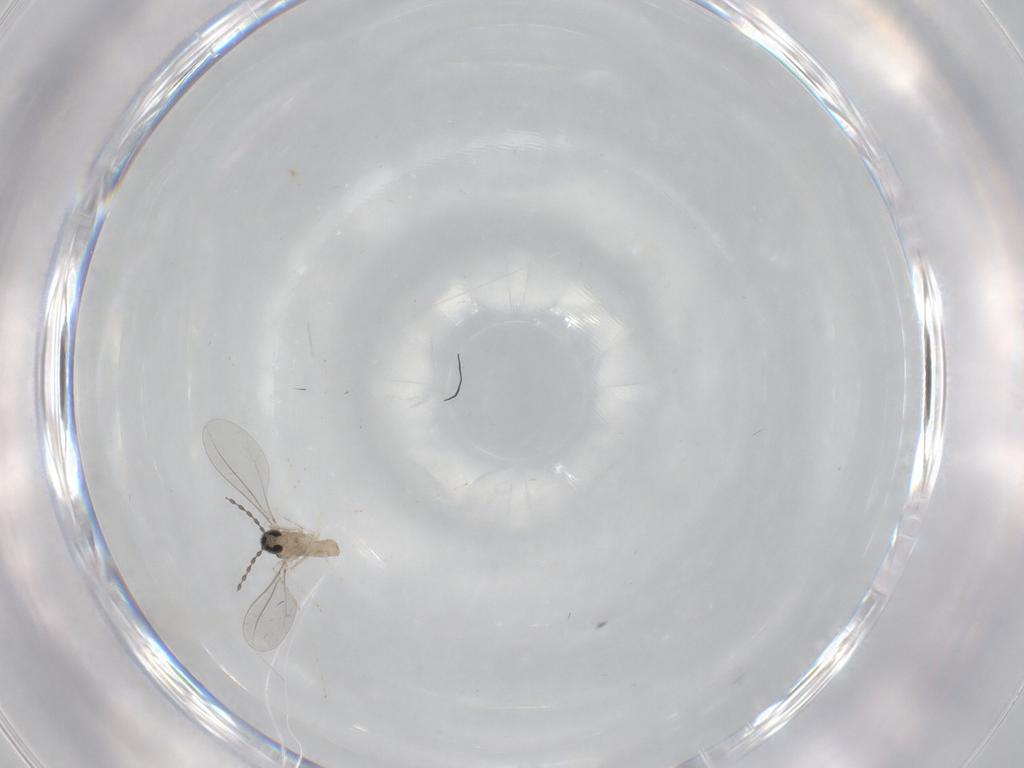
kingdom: Animalia
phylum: Arthropoda
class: Insecta
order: Diptera
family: Cecidomyiidae
